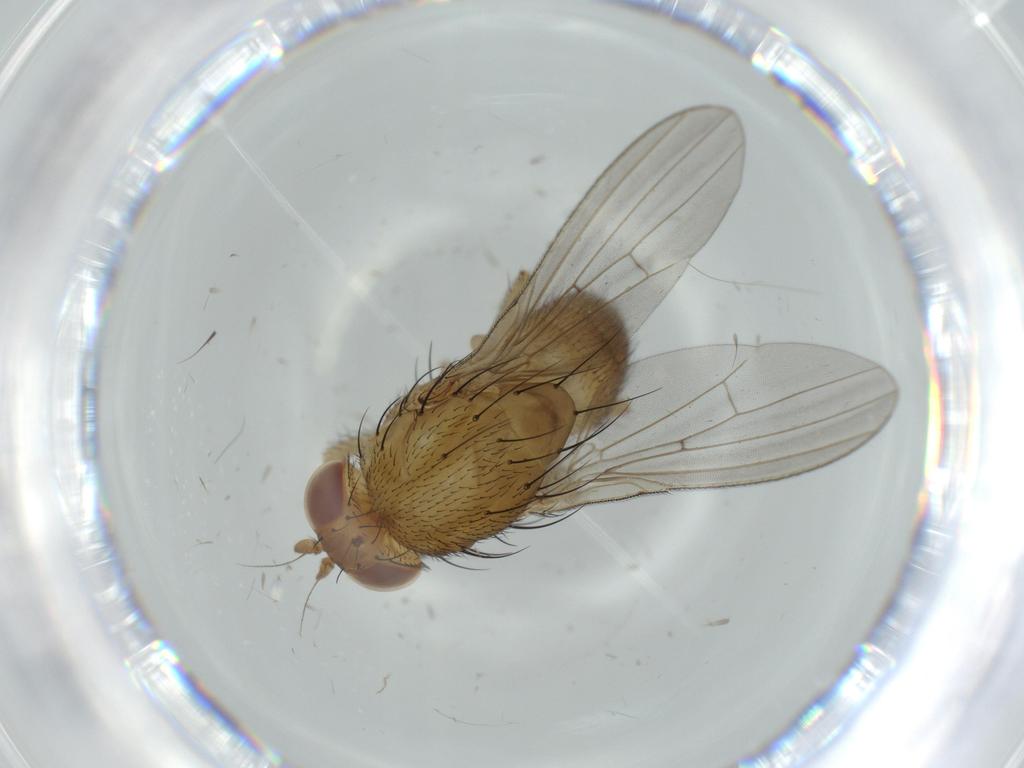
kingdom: Animalia
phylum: Arthropoda
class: Insecta
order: Diptera
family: Lauxaniidae
